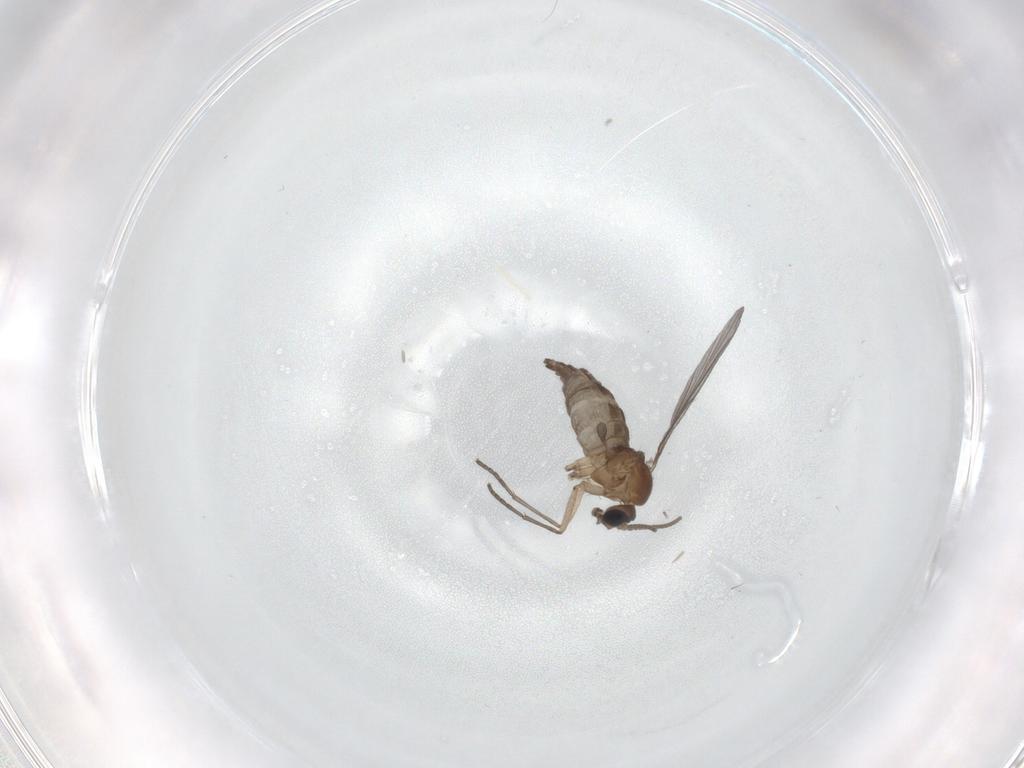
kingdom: Animalia
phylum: Arthropoda
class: Insecta
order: Diptera
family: Sciaridae
